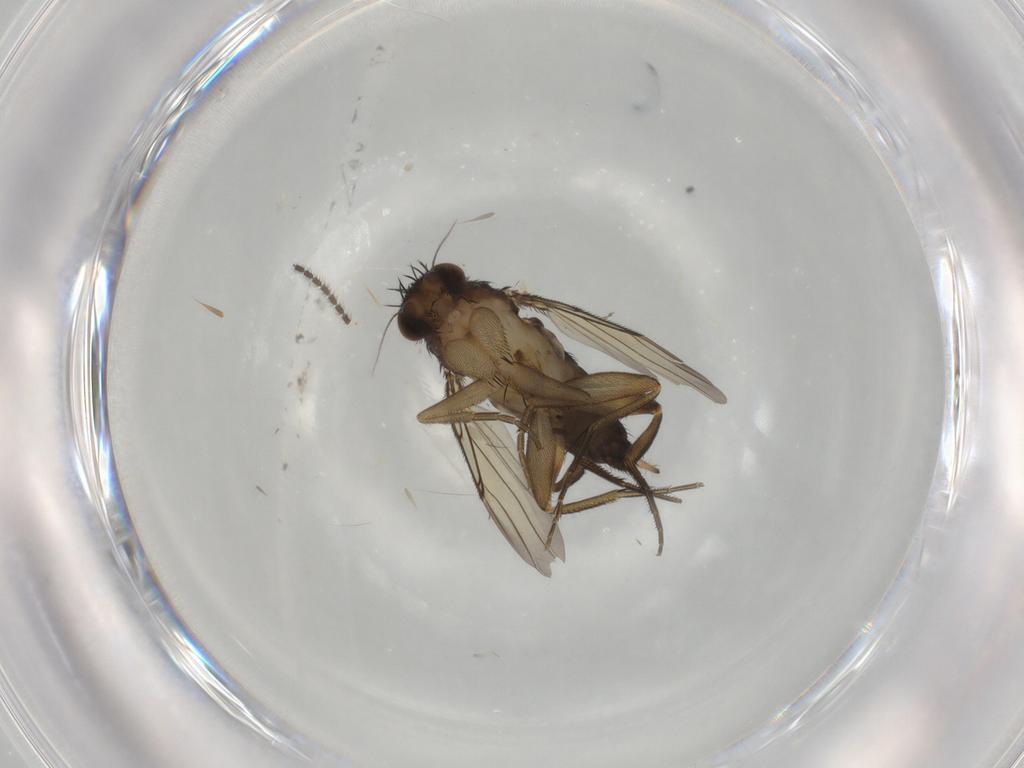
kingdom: Animalia
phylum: Arthropoda
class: Insecta
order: Diptera
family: Phoridae
